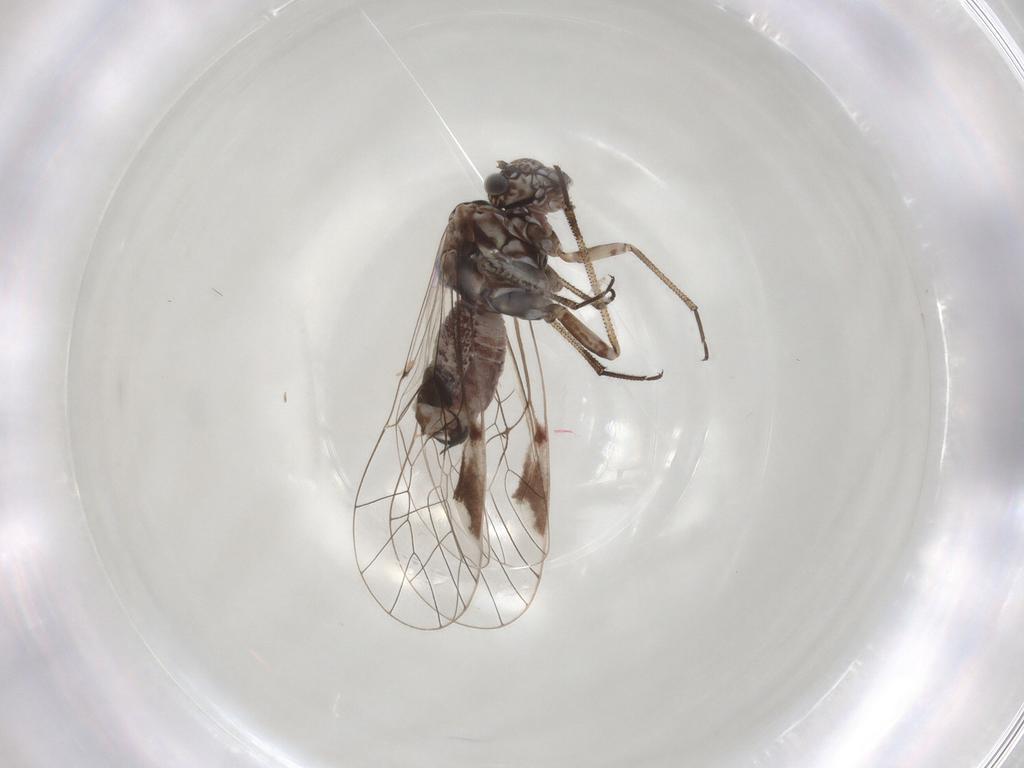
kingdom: Animalia
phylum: Arthropoda
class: Insecta
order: Psocodea
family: Psocidae
